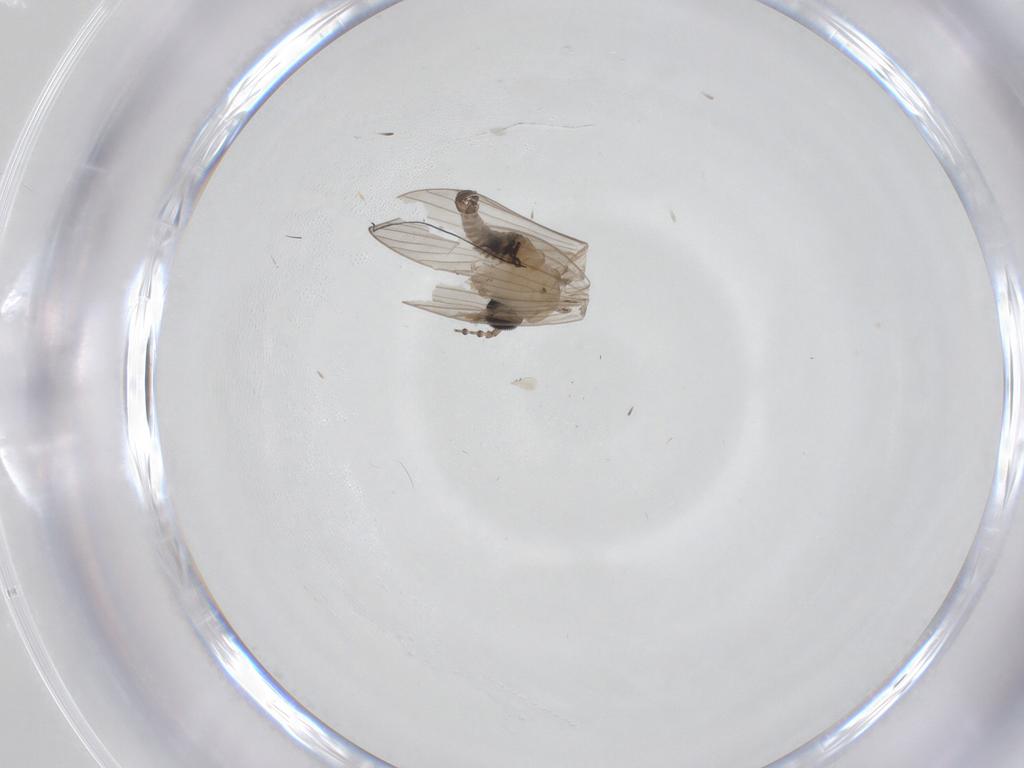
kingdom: Animalia
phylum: Arthropoda
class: Insecta
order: Diptera
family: Psychodidae
